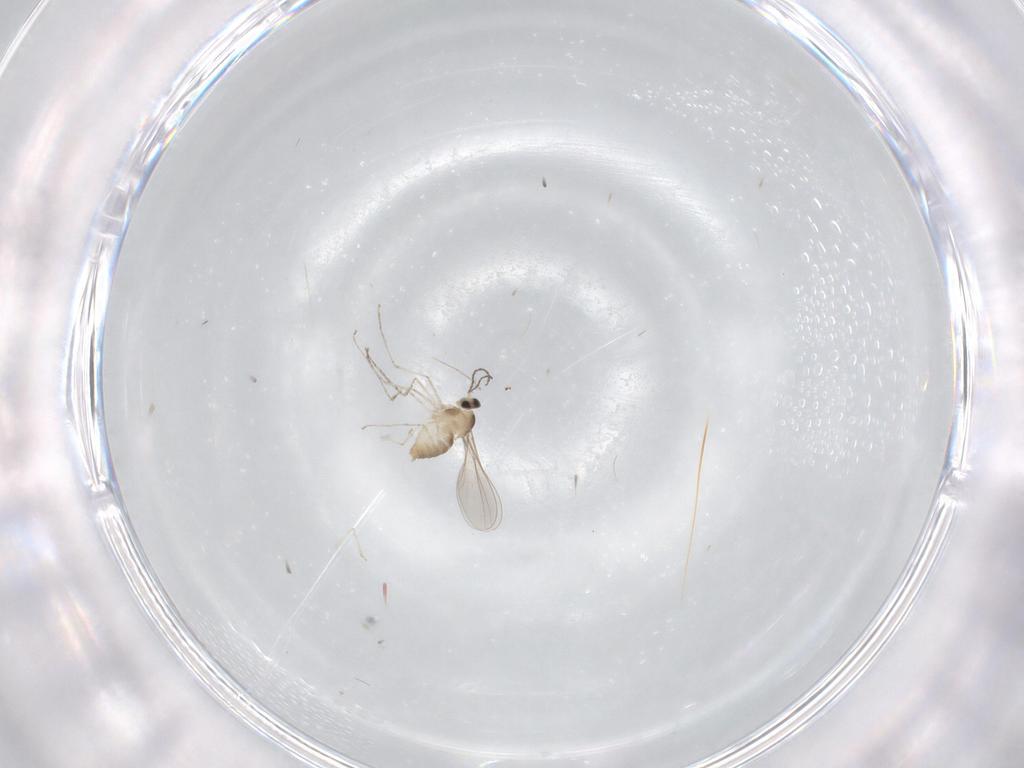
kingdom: Animalia
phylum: Arthropoda
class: Insecta
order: Diptera
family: Cecidomyiidae
